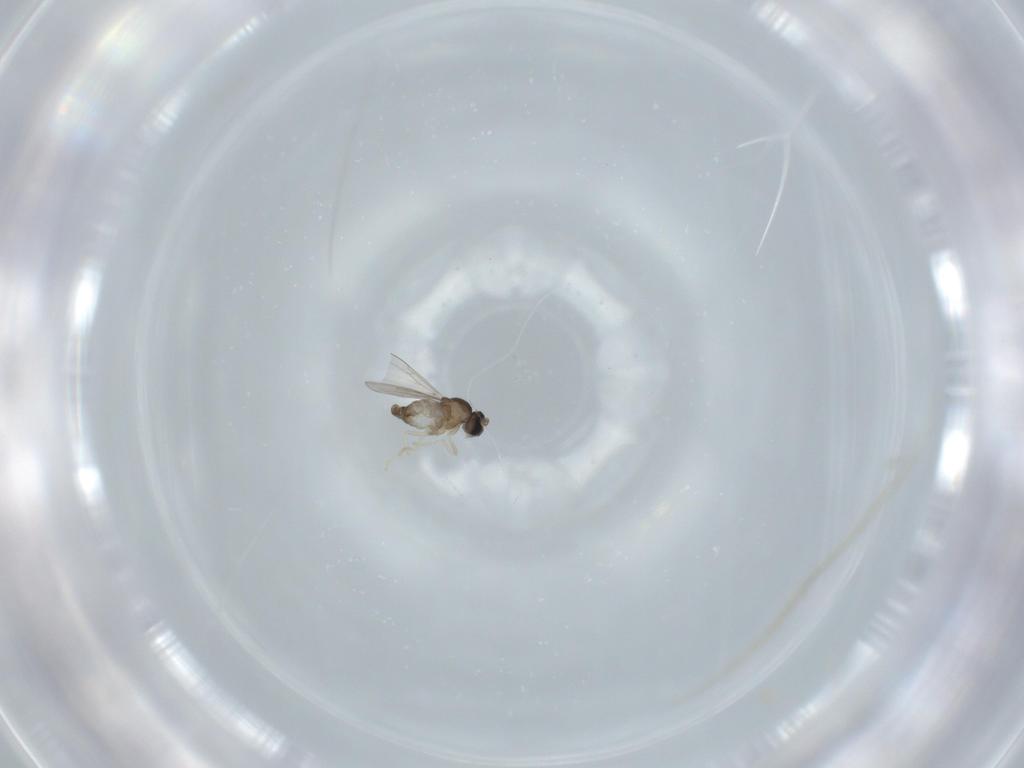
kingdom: Animalia
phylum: Arthropoda
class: Insecta
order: Diptera
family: Cecidomyiidae
